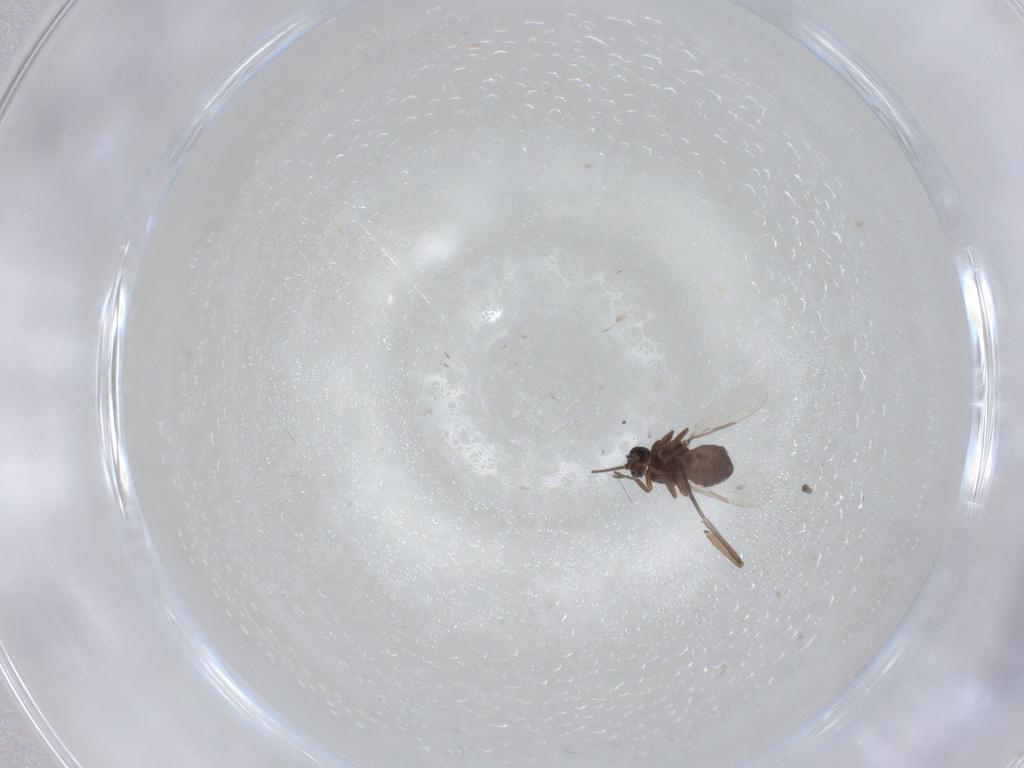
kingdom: Animalia
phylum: Arthropoda
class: Insecta
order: Diptera
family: Ceratopogonidae
